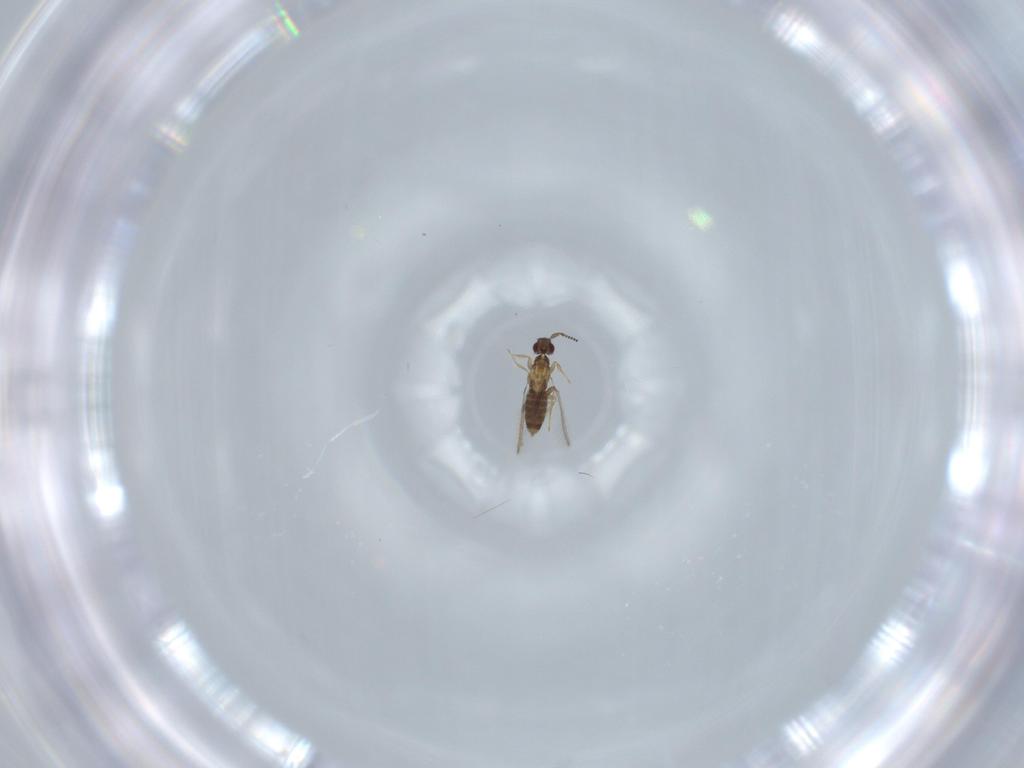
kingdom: Animalia
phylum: Arthropoda
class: Insecta
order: Hymenoptera
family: Mymaridae
